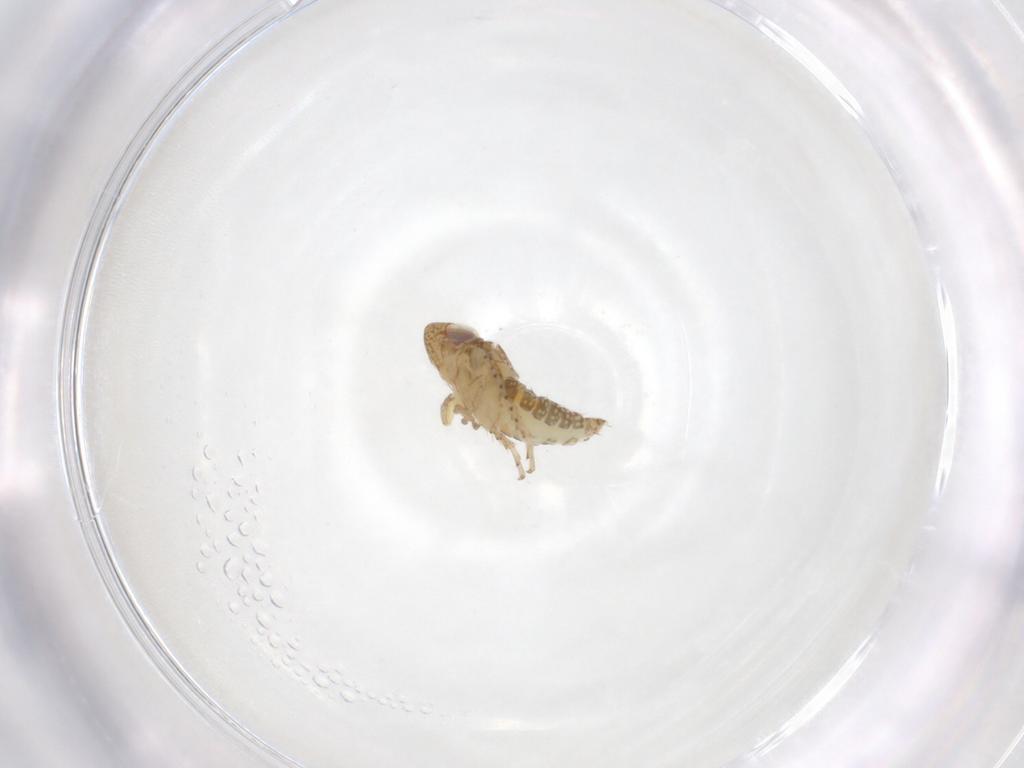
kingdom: Animalia
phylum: Arthropoda
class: Insecta
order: Hemiptera
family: Cicadellidae
